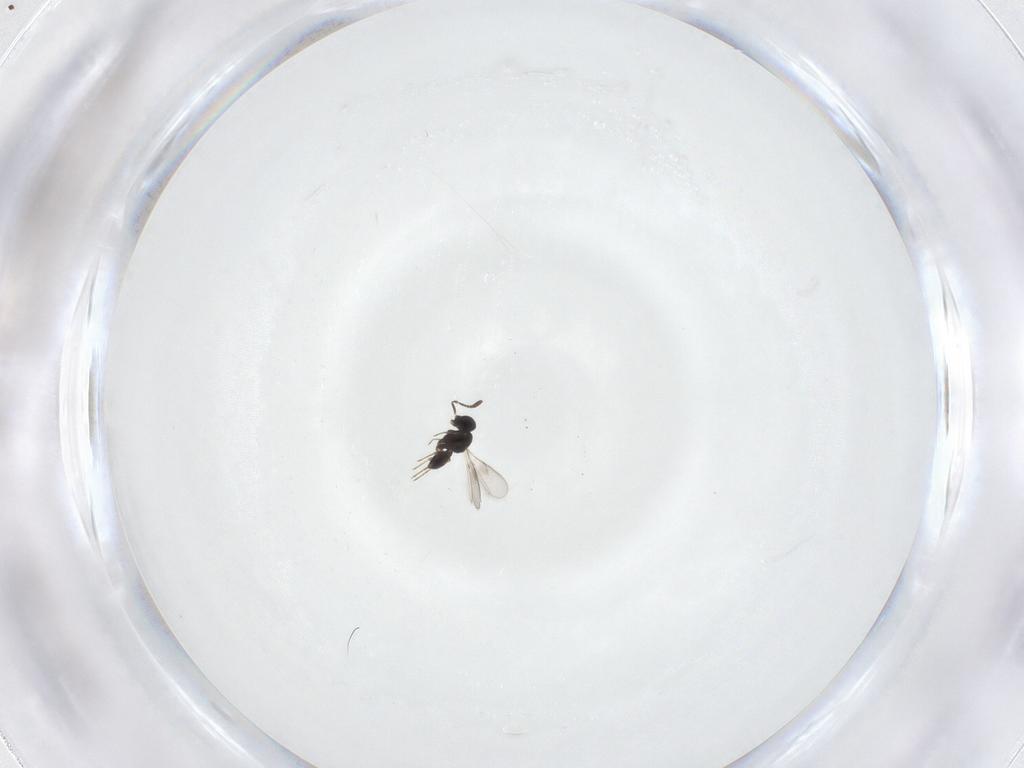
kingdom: Animalia
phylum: Arthropoda
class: Insecta
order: Hymenoptera
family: Scelionidae
